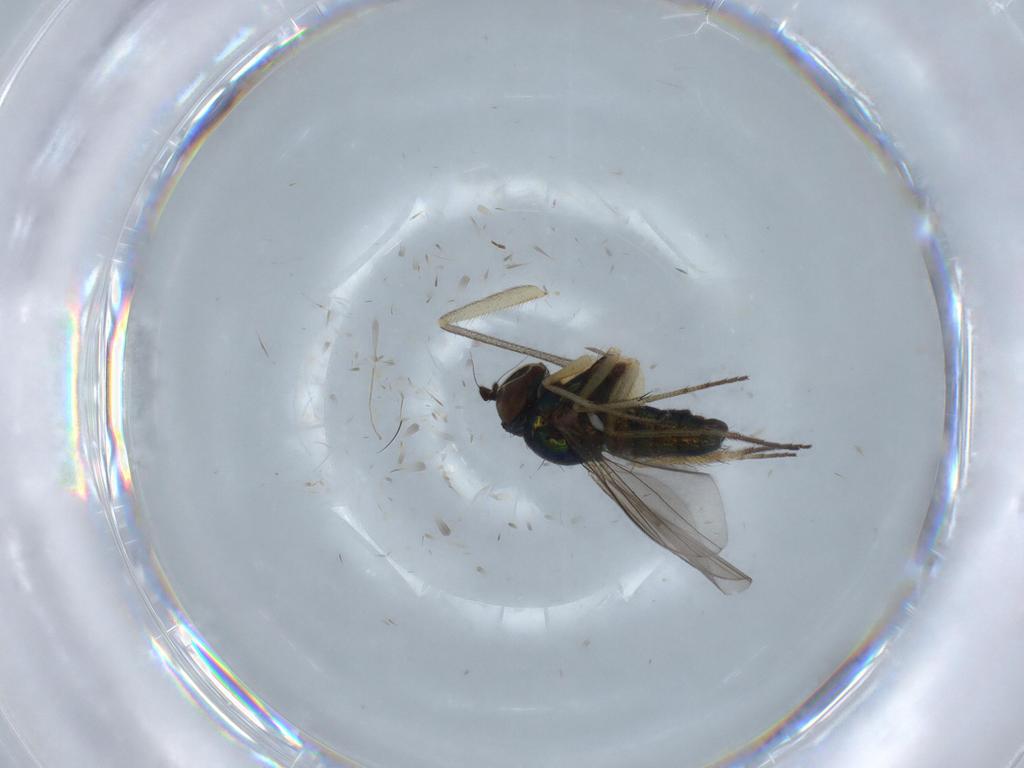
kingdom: Animalia
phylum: Arthropoda
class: Insecta
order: Diptera
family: Dolichopodidae
